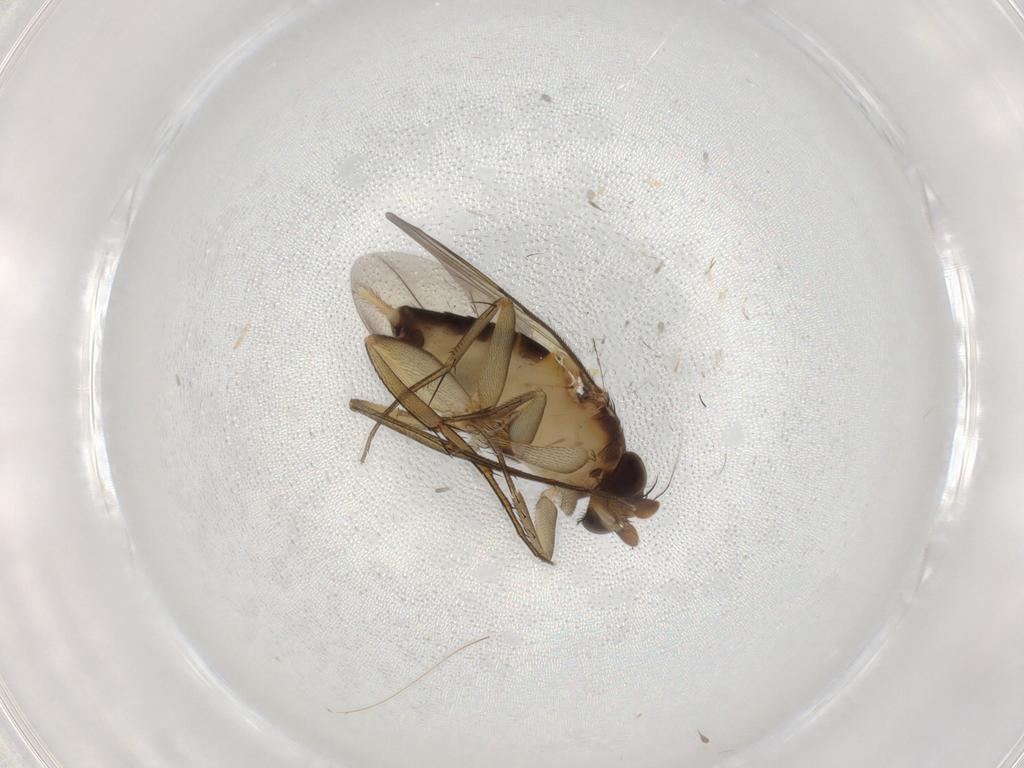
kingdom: Animalia
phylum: Arthropoda
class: Insecta
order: Diptera
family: Phoridae
